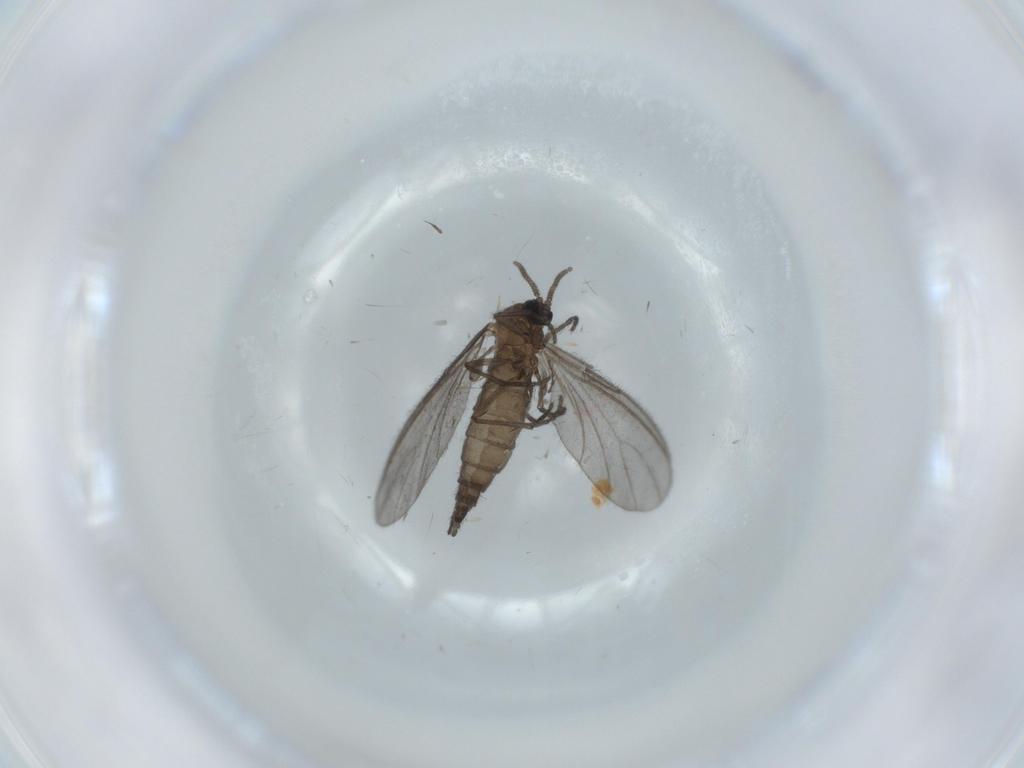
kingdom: Animalia
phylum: Arthropoda
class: Insecta
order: Diptera
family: Sciaridae
